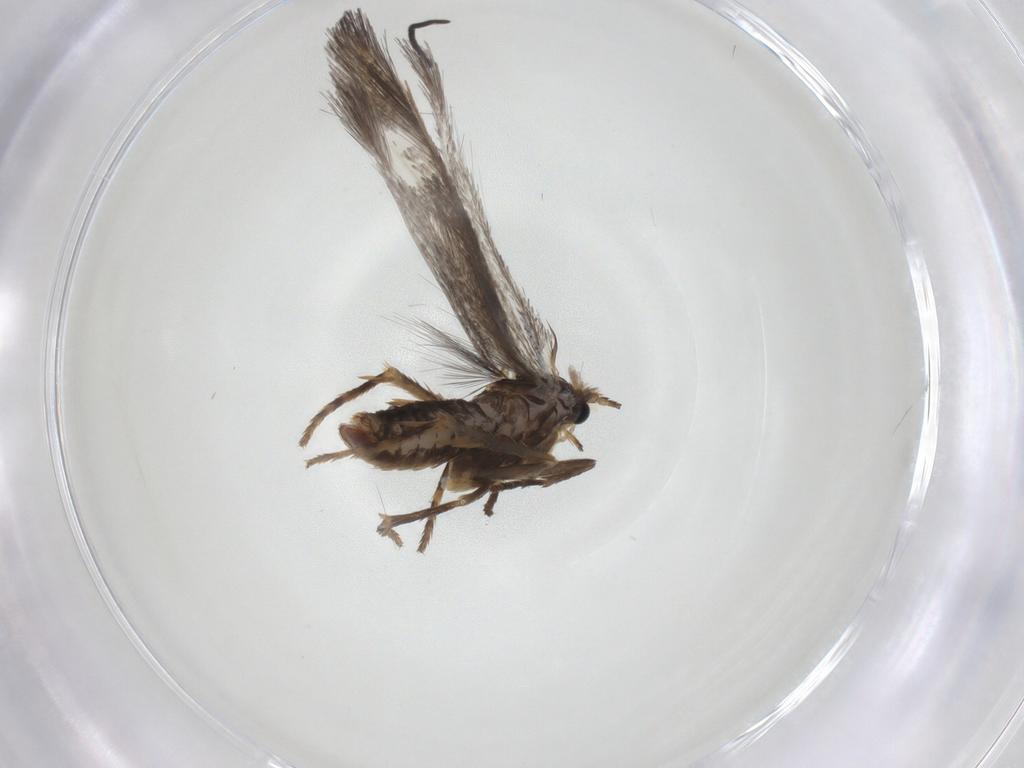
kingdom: Animalia
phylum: Arthropoda
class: Insecta
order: Lepidoptera
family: Nepticulidae
